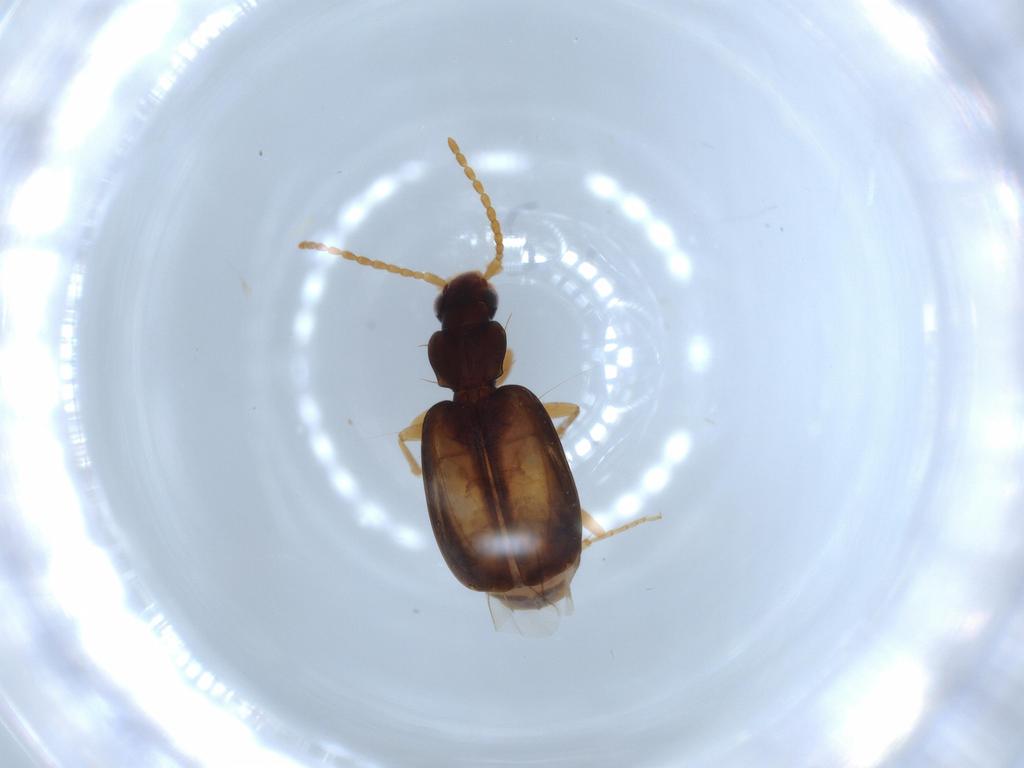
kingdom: Animalia
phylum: Arthropoda
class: Insecta
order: Coleoptera
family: Carabidae
